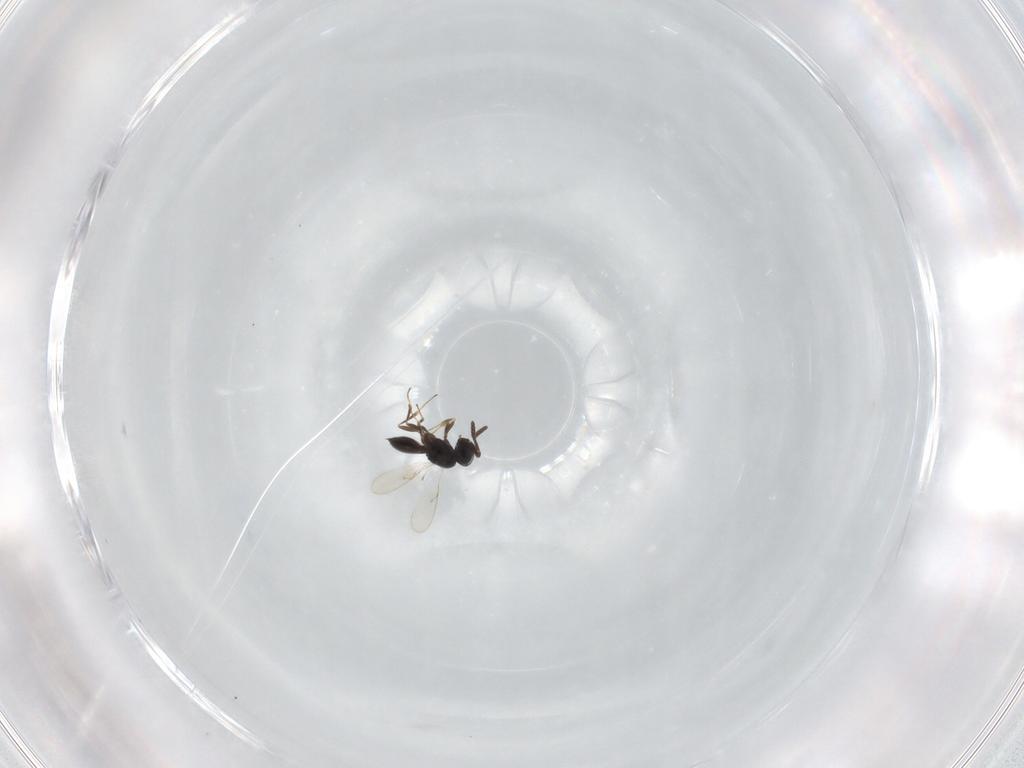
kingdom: Animalia
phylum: Arthropoda
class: Insecta
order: Hymenoptera
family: Scelionidae
